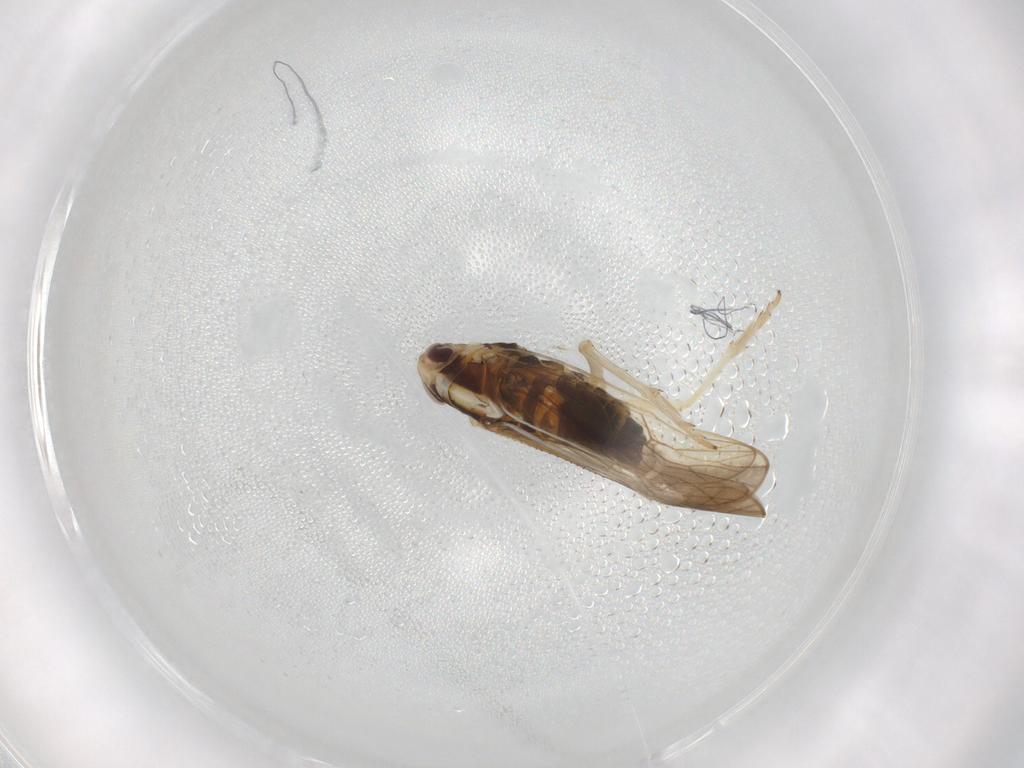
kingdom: Animalia
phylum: Arthropoda
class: Insecta
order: Hemiptera
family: Delphacidae
